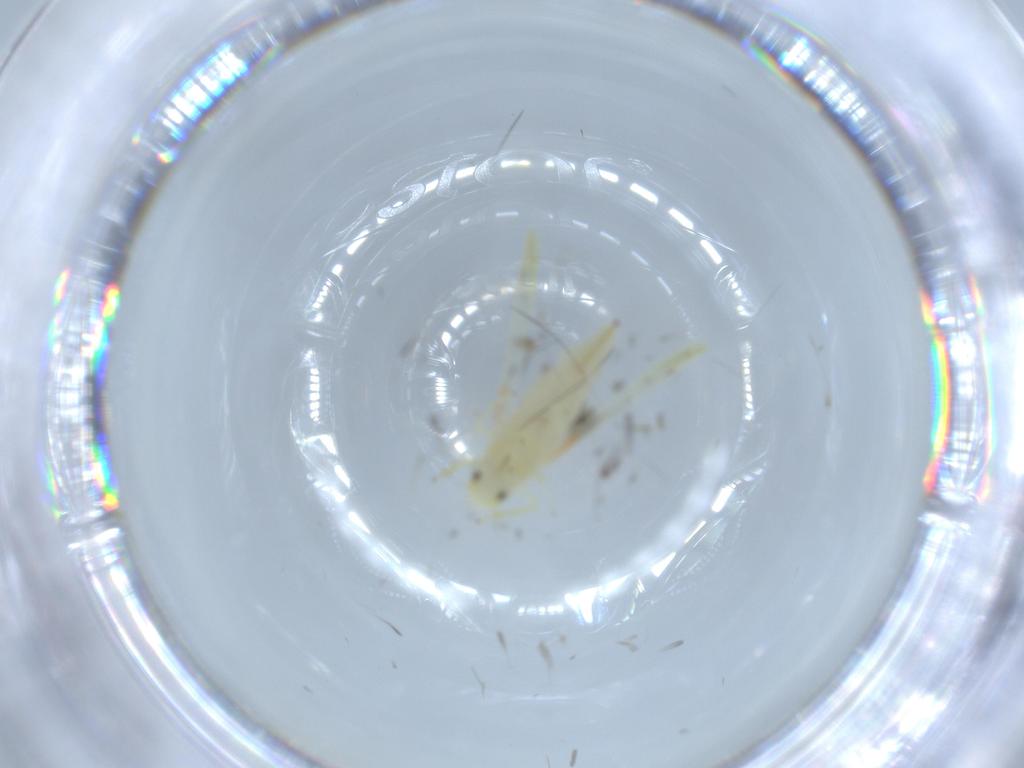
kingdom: Animalia
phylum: Arthropoda
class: Insecta
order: Hemiptera
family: Cicadellidae
